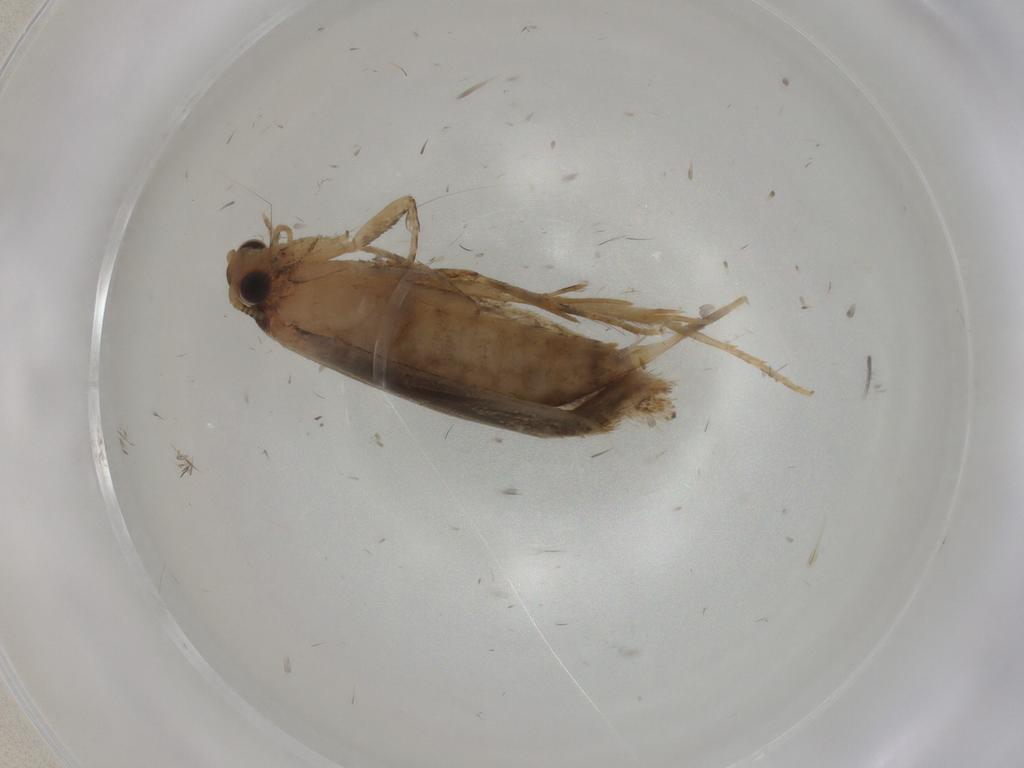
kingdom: Animalia
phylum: Arthropoda
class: Insecta
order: Lepidoptera
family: Tineidae
